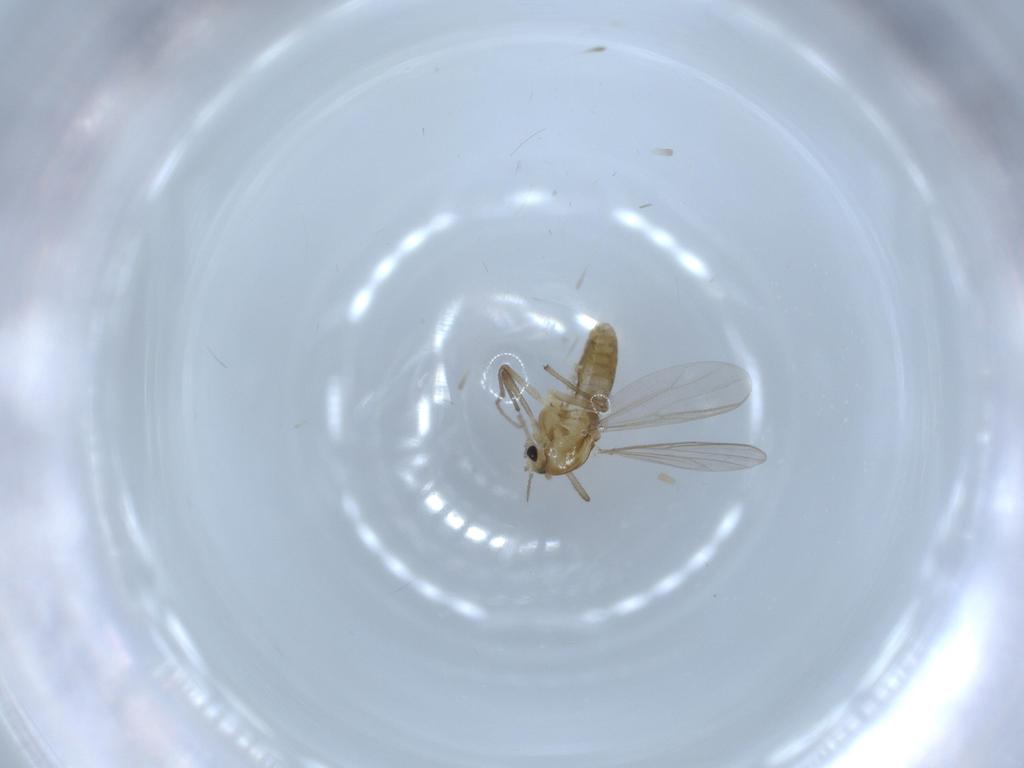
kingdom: Animalia
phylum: Arthropoda
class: Insecta
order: Diptera
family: Chironomidae
